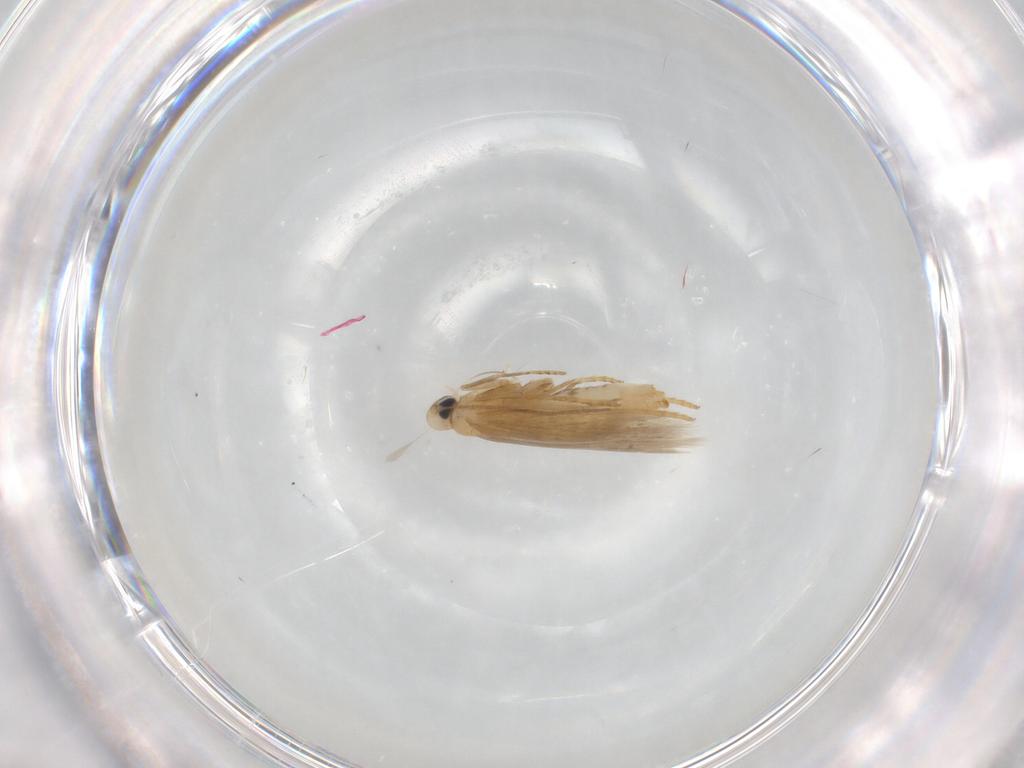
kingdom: Animalia
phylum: Arthropoda
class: Insecta
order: Lepidoptera
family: Tischeriidae
